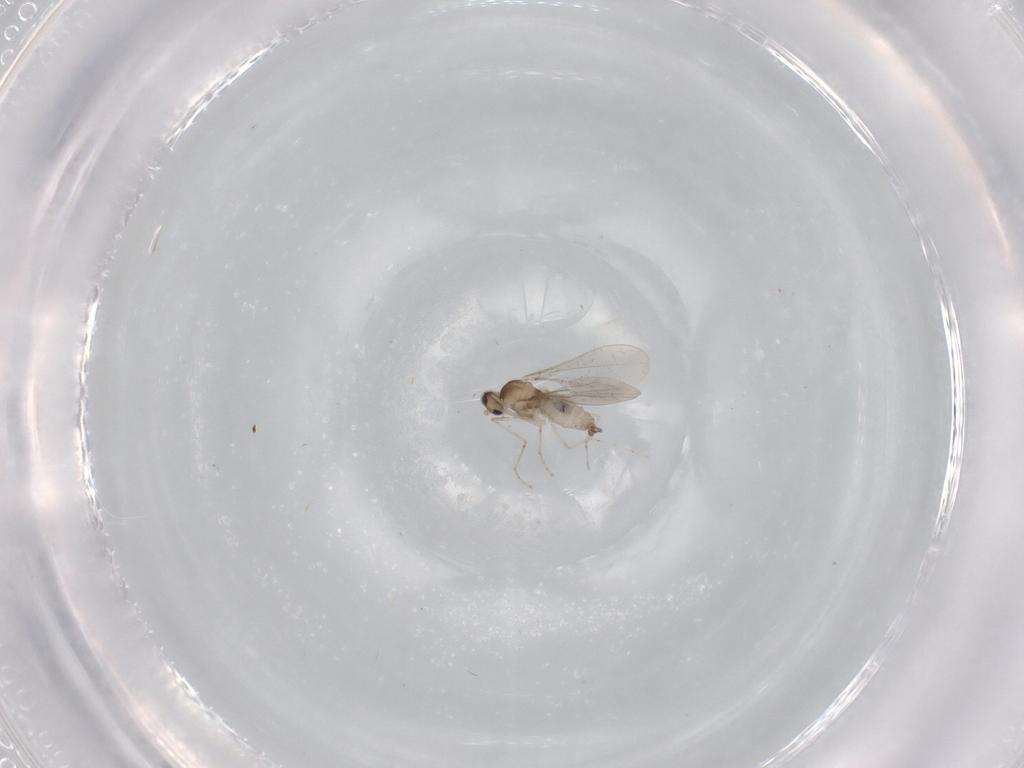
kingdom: Animalia
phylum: Arthropoda
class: Insecta
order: Diptera
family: Cecidomyiidae
